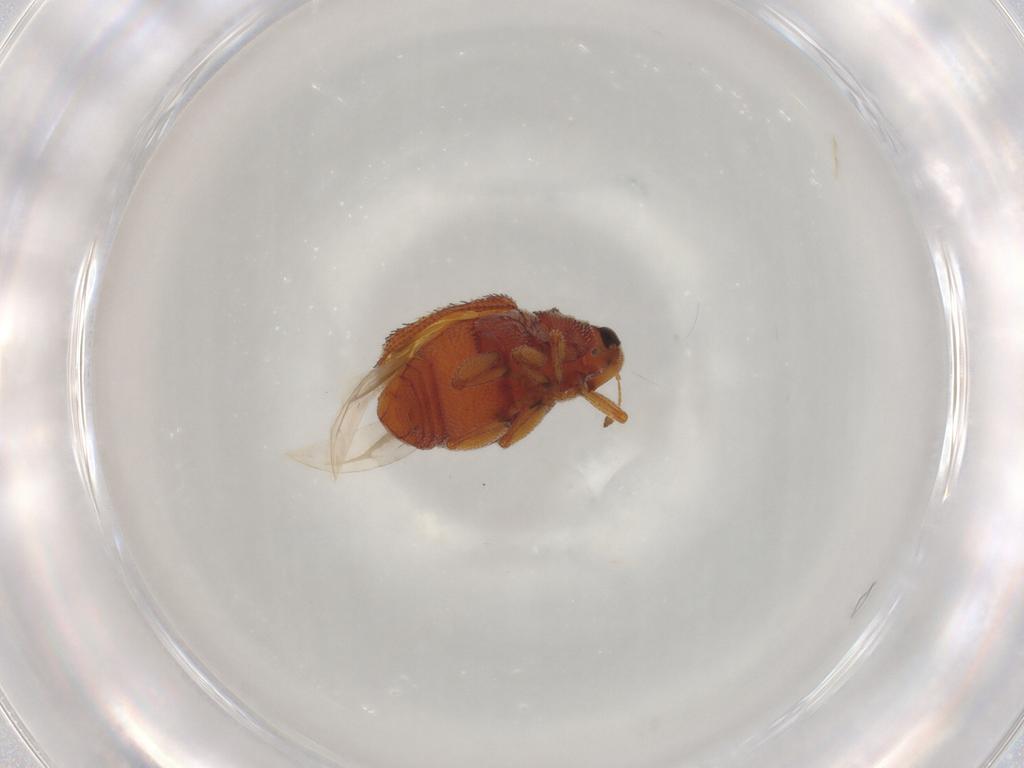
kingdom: Animalia
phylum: Arthropoda
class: Insecta
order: Coleoptera
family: Curculionidae
